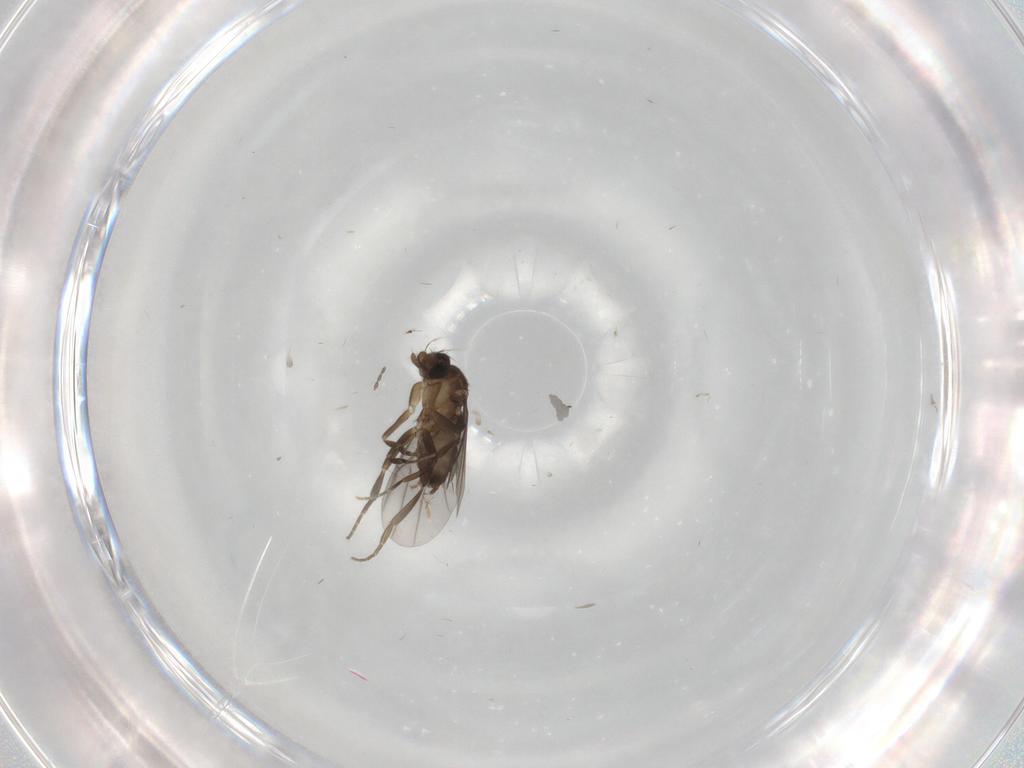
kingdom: Animalia
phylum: Arthropoda
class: Insecta
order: Diptera
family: Phoridae
